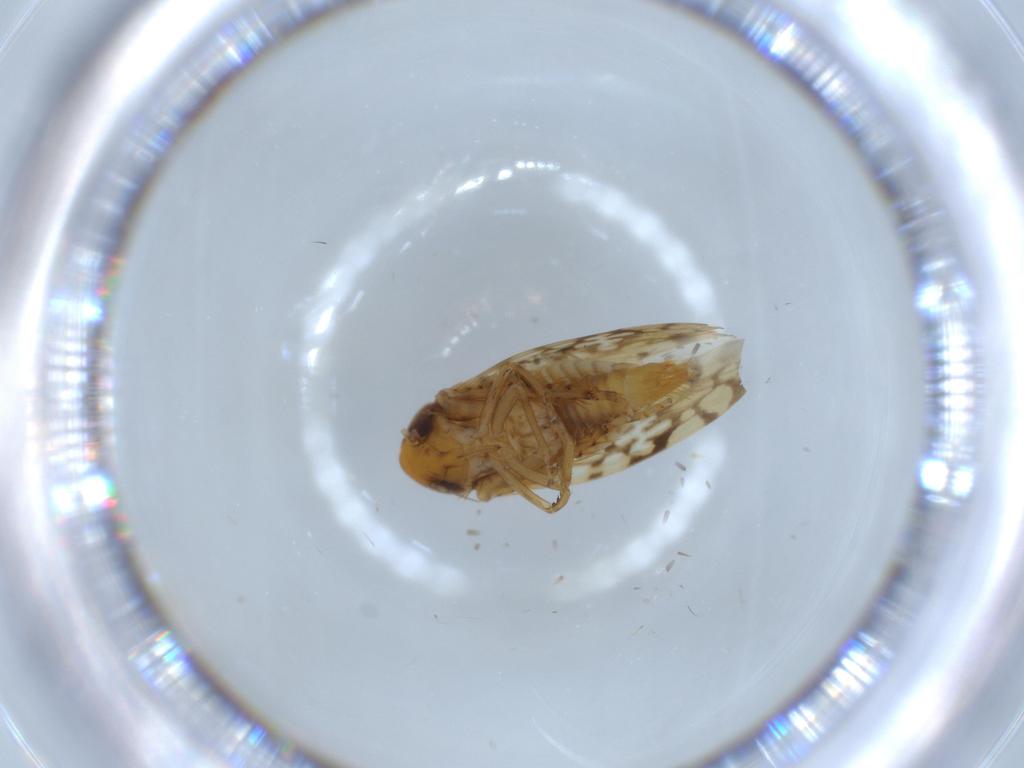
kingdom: Animalia
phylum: Arthropoda
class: Insecta
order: Hemiptera
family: Cicadellidae
